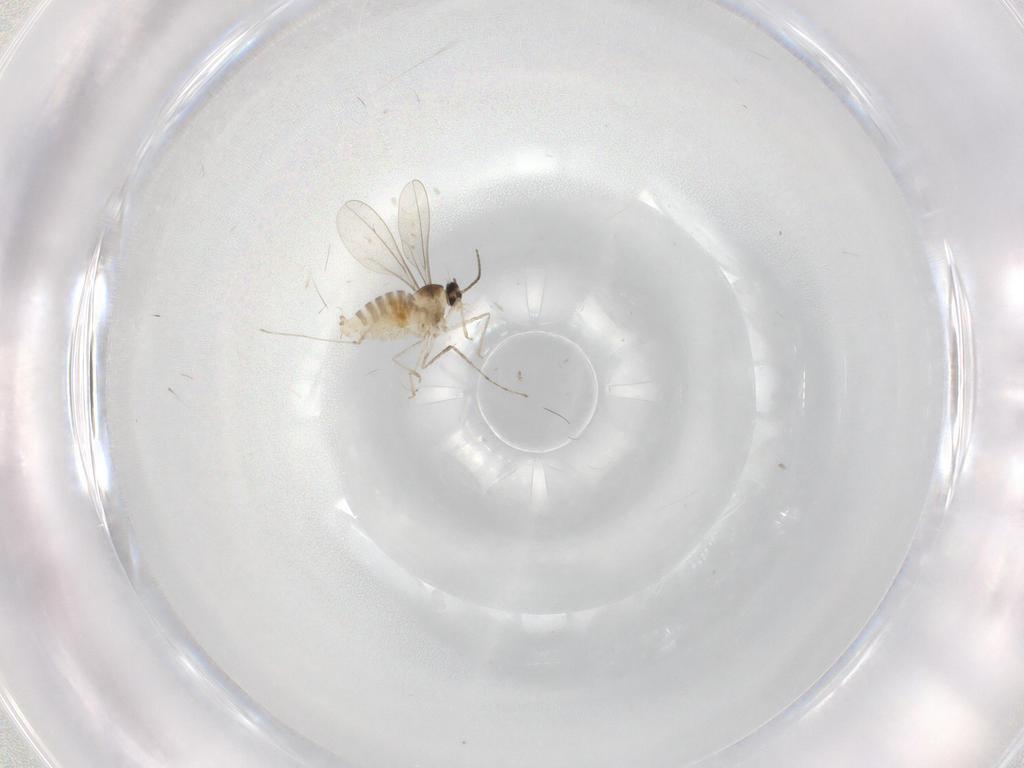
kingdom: Animalia
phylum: Arthropoda
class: Insecta
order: Diptera
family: Cecidomyiidae
